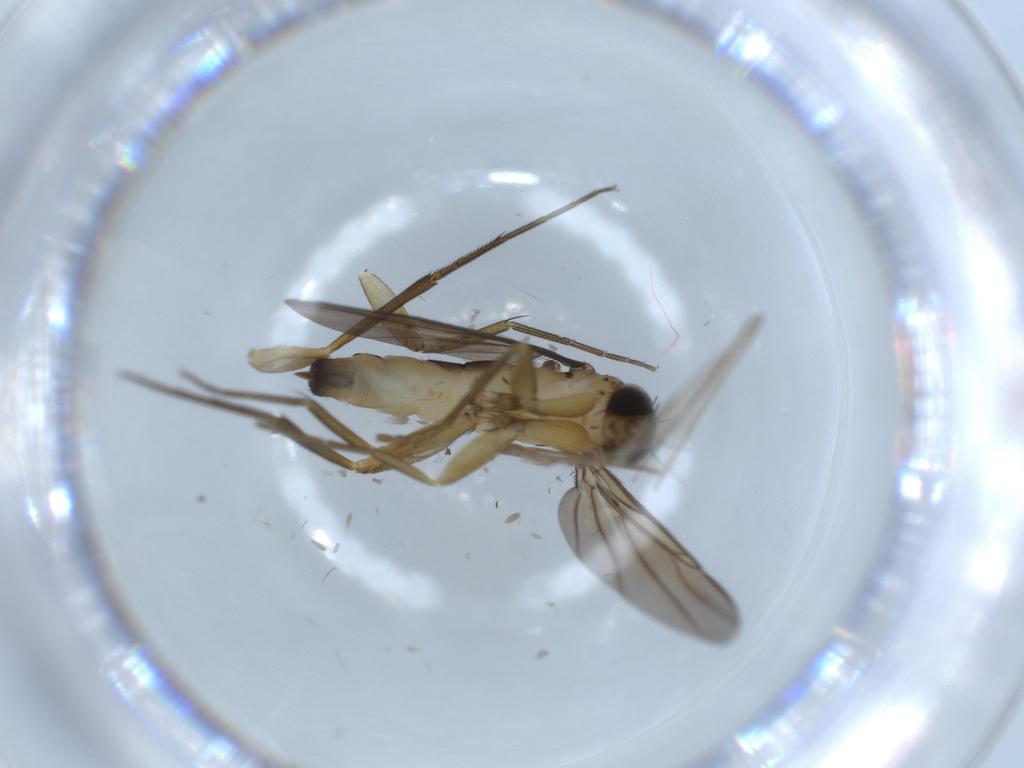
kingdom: Animalia
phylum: Arthropoda
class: Insecta
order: Diptera
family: Phoridae
